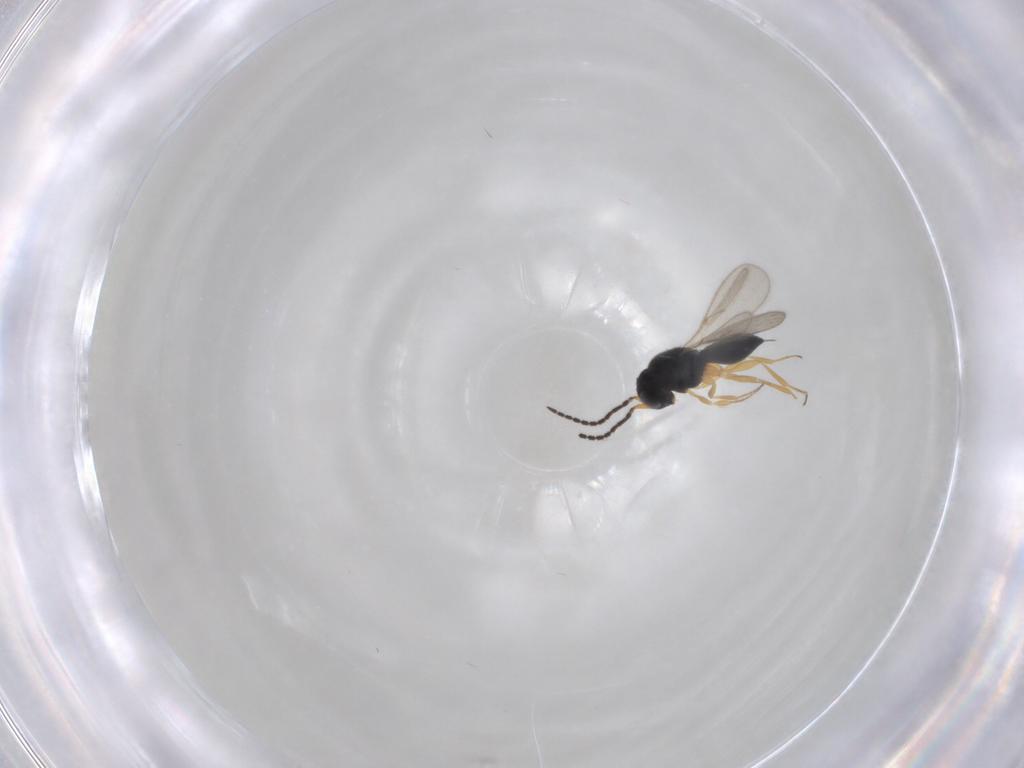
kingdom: Animalia
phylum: Arthropoda
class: Insecta
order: Hymenoptera
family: Scelionidae
